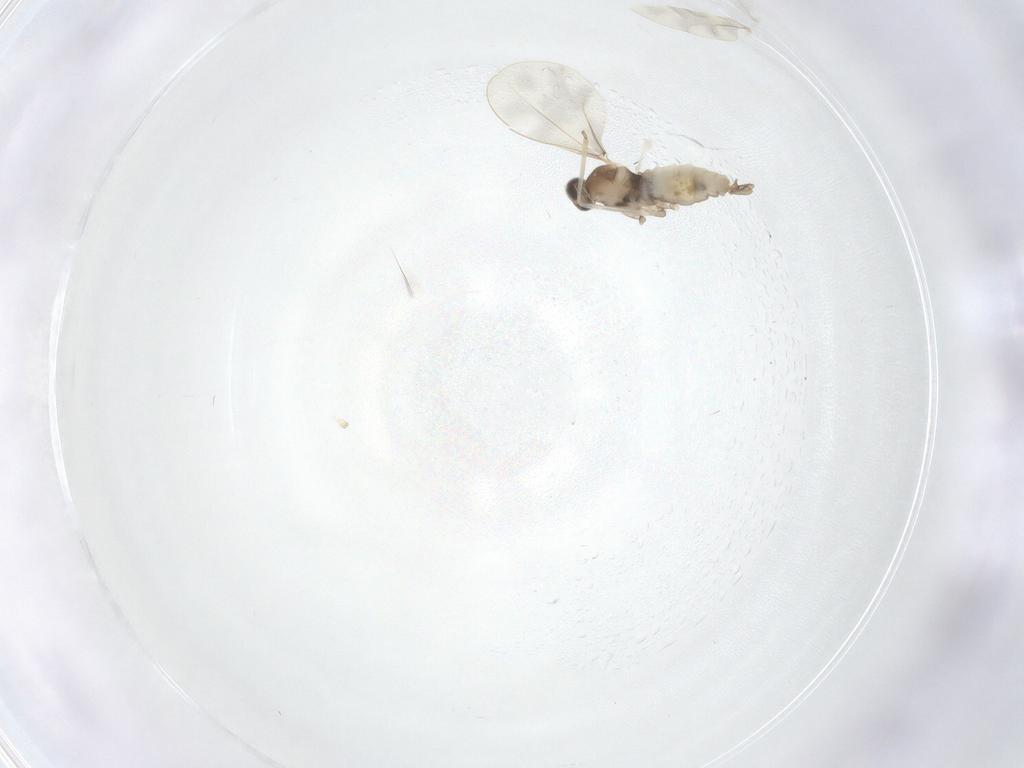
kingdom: Animalia
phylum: Arthropoda
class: Insecta
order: Diptera
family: Cecidomyiidae
